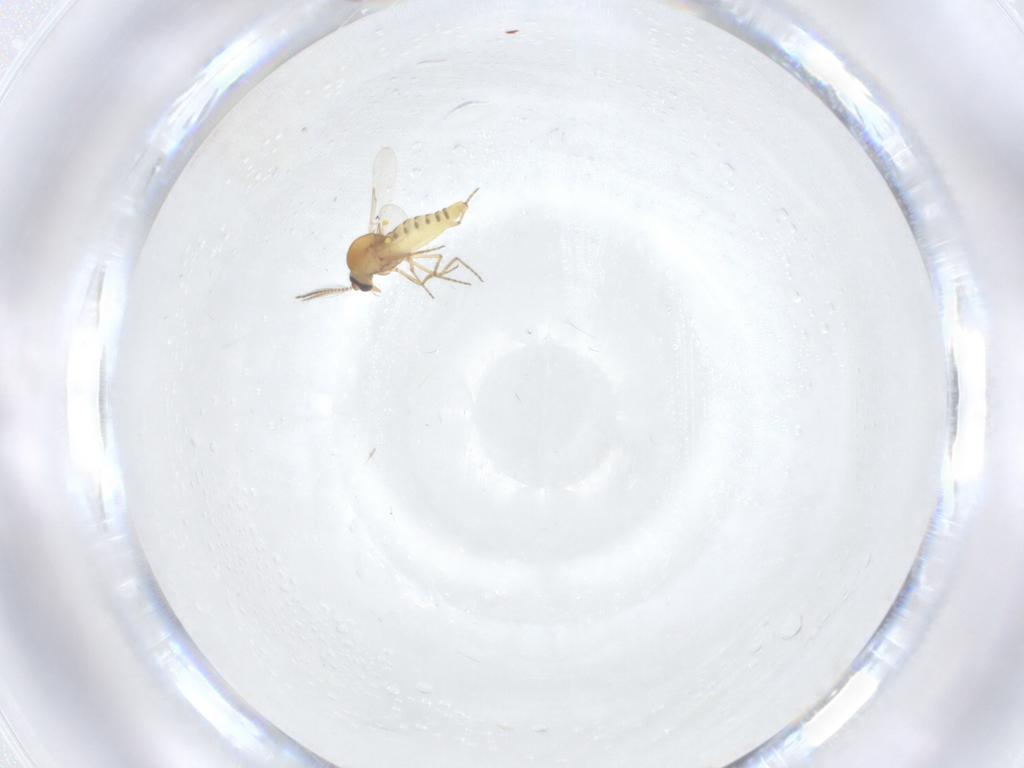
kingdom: Animalia
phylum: Arthropoda
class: Insecta
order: Diptera
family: Ceratopogonidae
